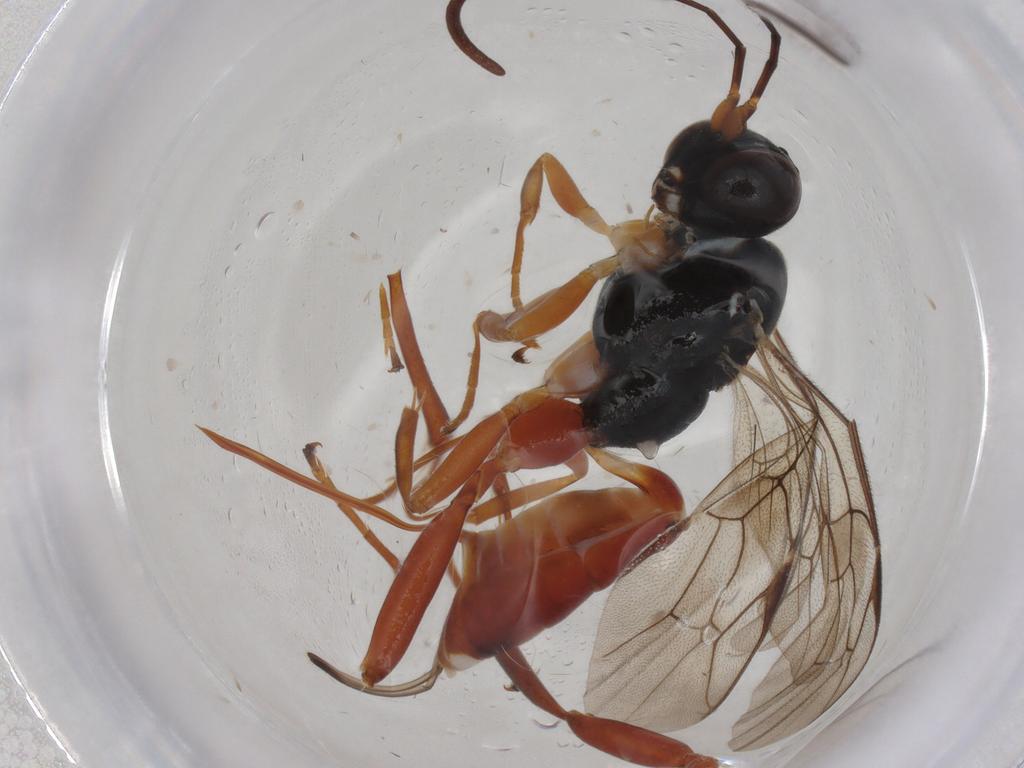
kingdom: Animalia
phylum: Arthropoda
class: Insecta
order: Hymenoptera
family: Ichneumonidae
